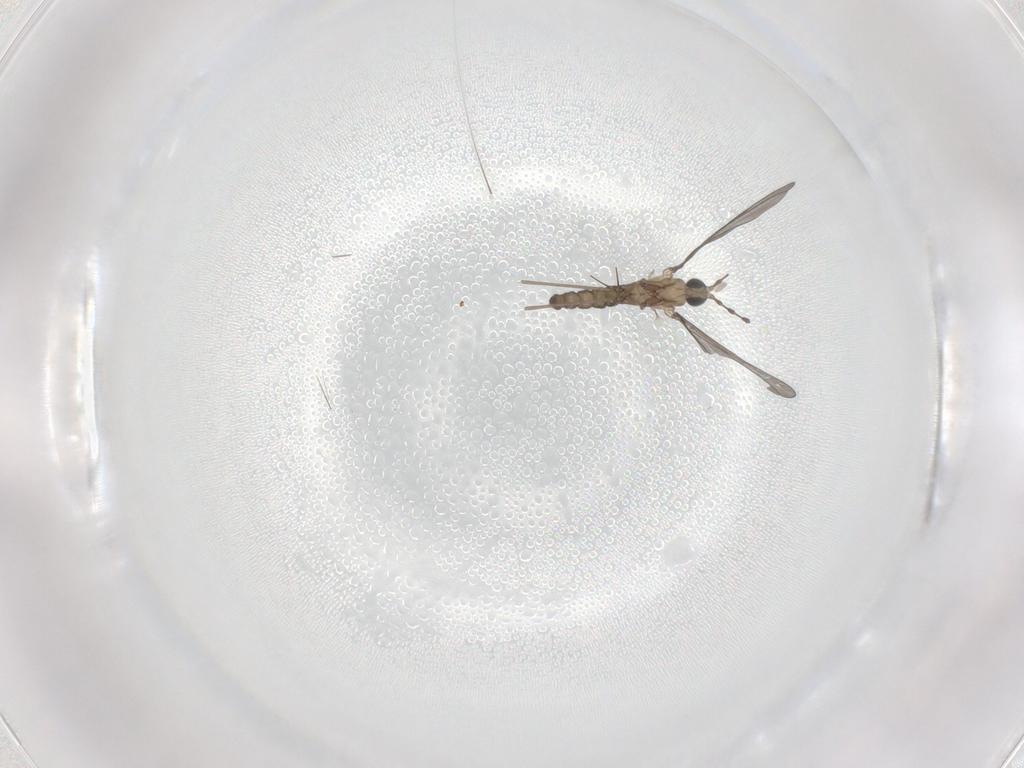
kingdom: Animalia
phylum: Arthropoda
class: Insecta
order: Diptera
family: Cecidomyiidae
